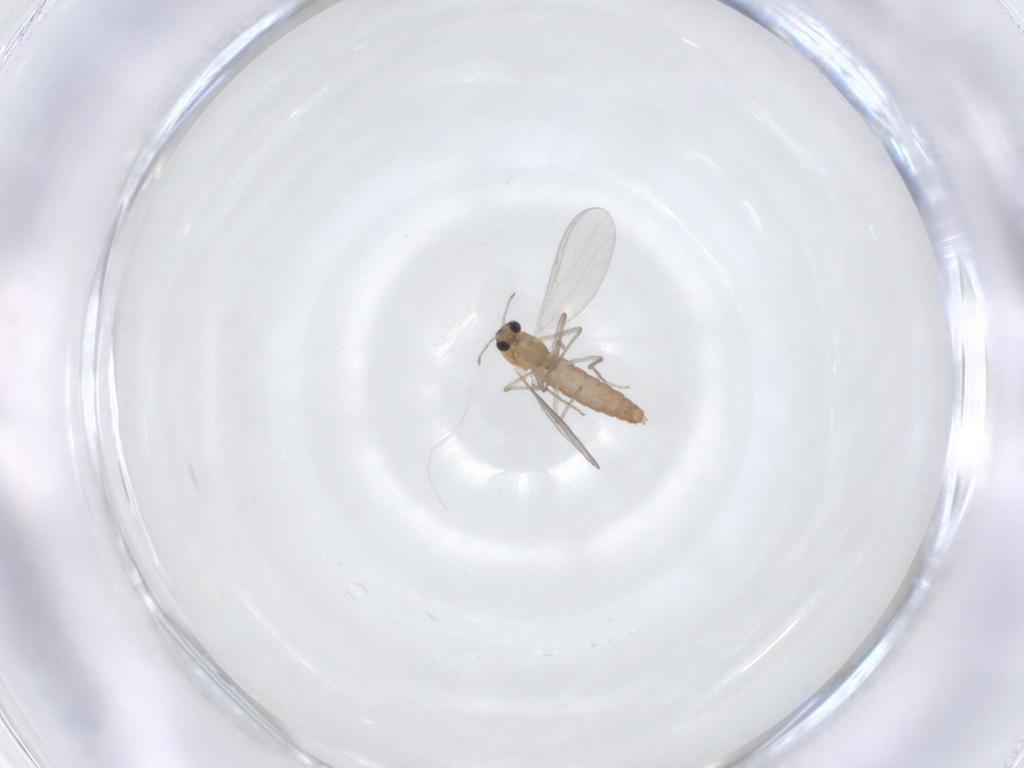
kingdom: Animalia
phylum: Arthropoda
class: Insecta
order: Diptera
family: Chironomidae
